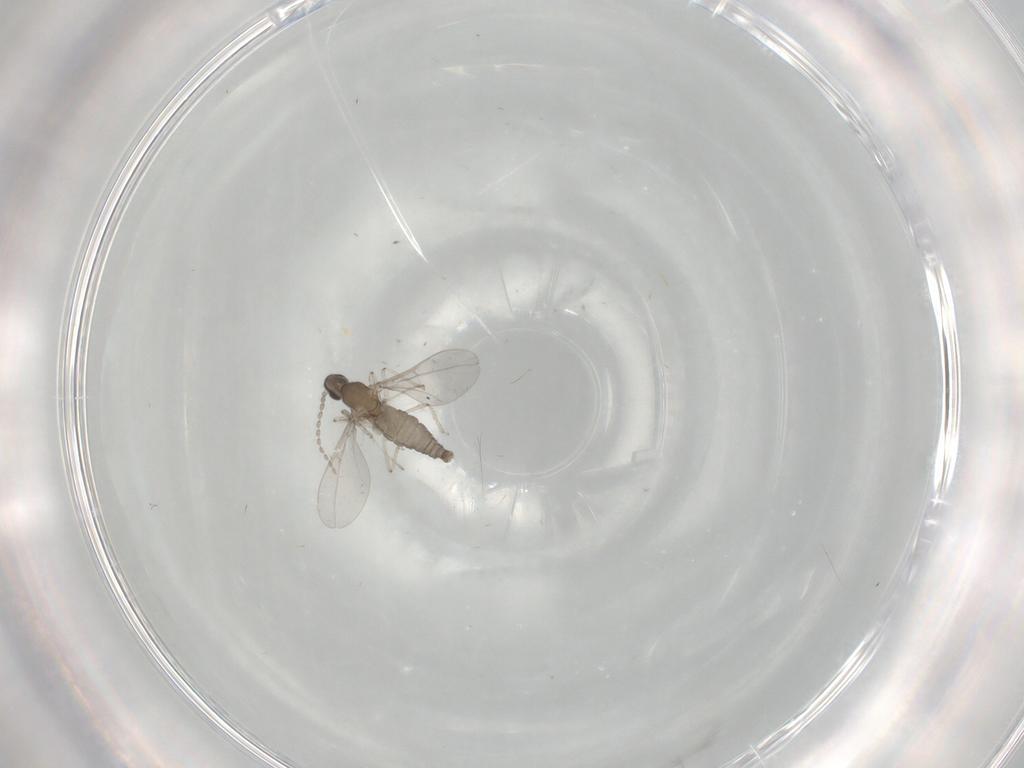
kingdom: Animalia
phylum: Arthropoda
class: Insecta
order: Diptera
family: Cecidomyiidae
